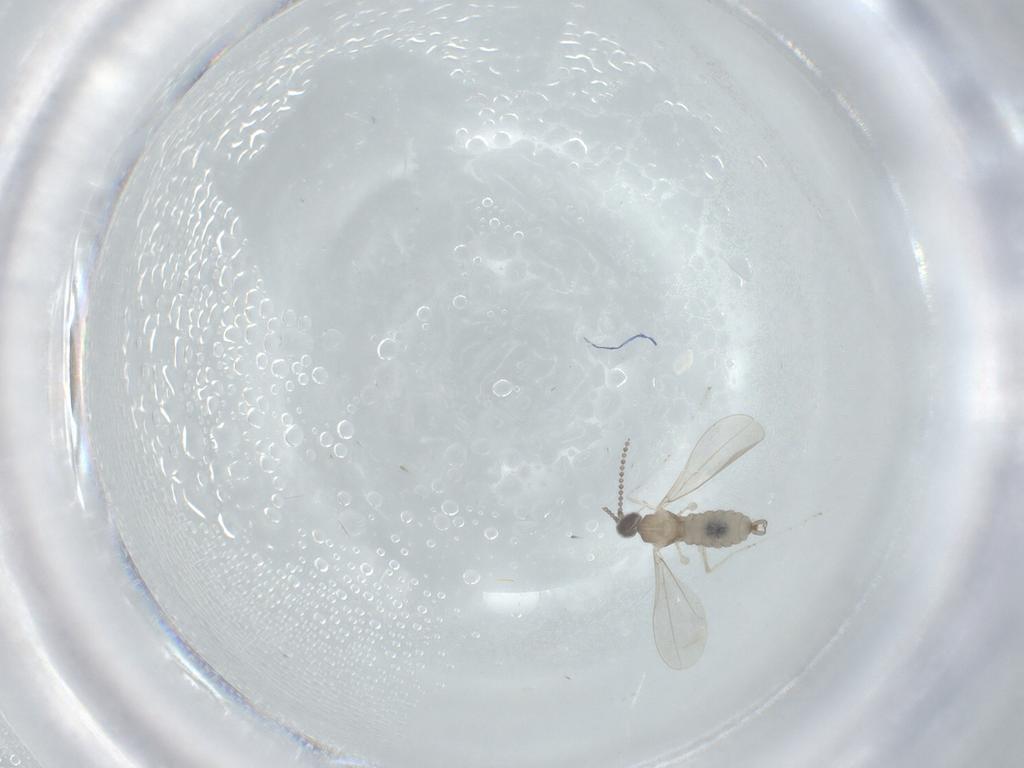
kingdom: Animalia
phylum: Arthropoda
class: Insecta
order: Diptera
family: Cecidomyiidae
